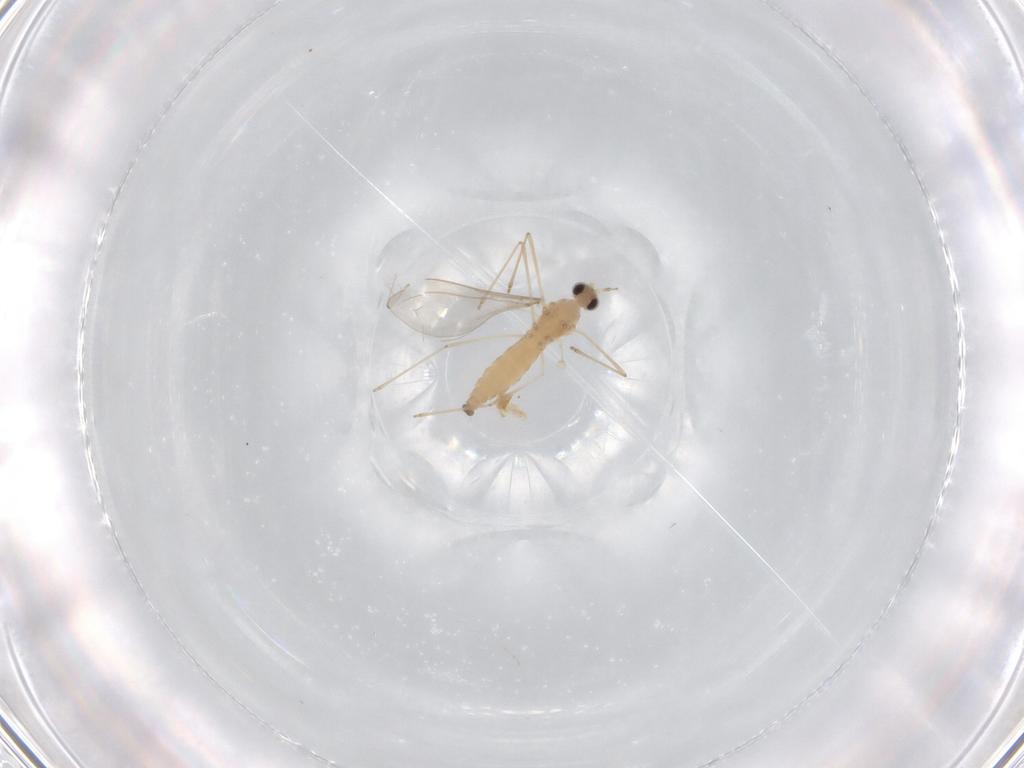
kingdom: Animalia
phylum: Arthropoda
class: Insecta
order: Diptera
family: Cecidomyiidae
